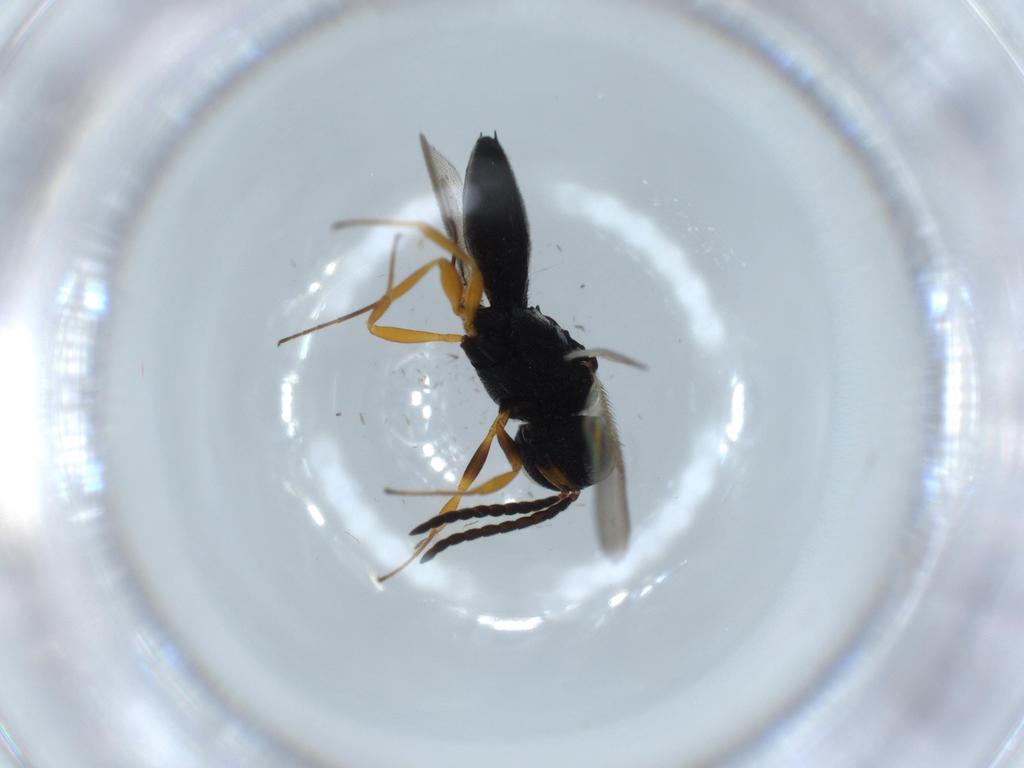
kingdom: Animalia
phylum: Arthropoda
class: Insecta
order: Hymenoptera
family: Scelionidae
